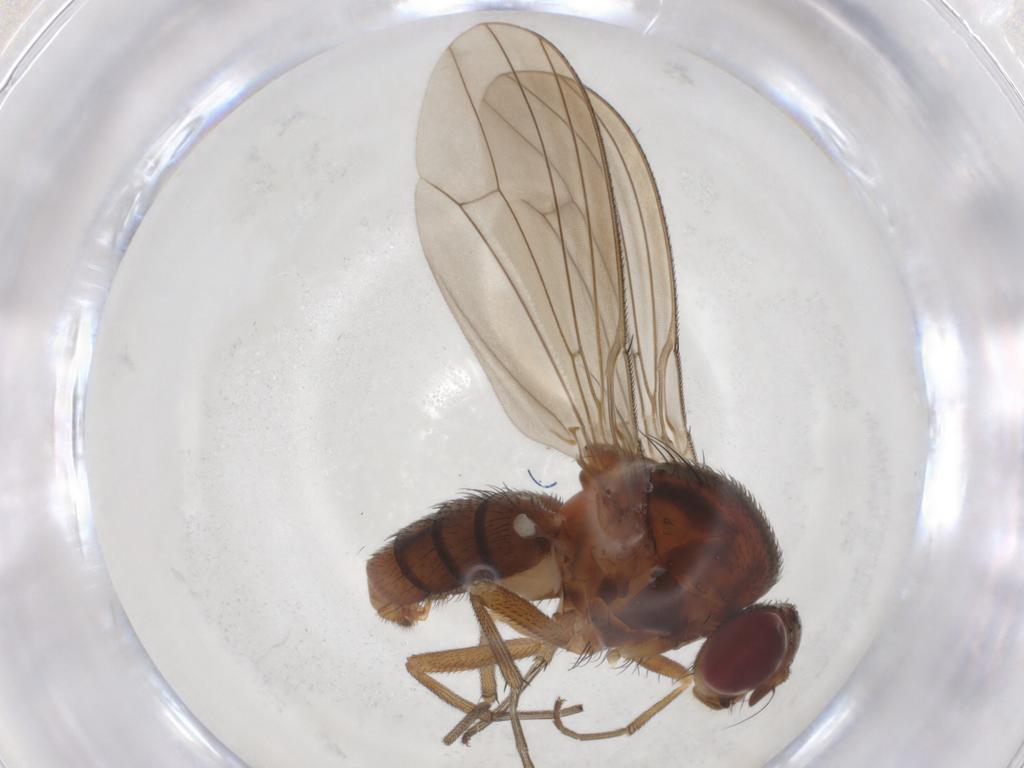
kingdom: Animalia
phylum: Arthropoda
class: Insecta
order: Diptera
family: Curtonotidae
